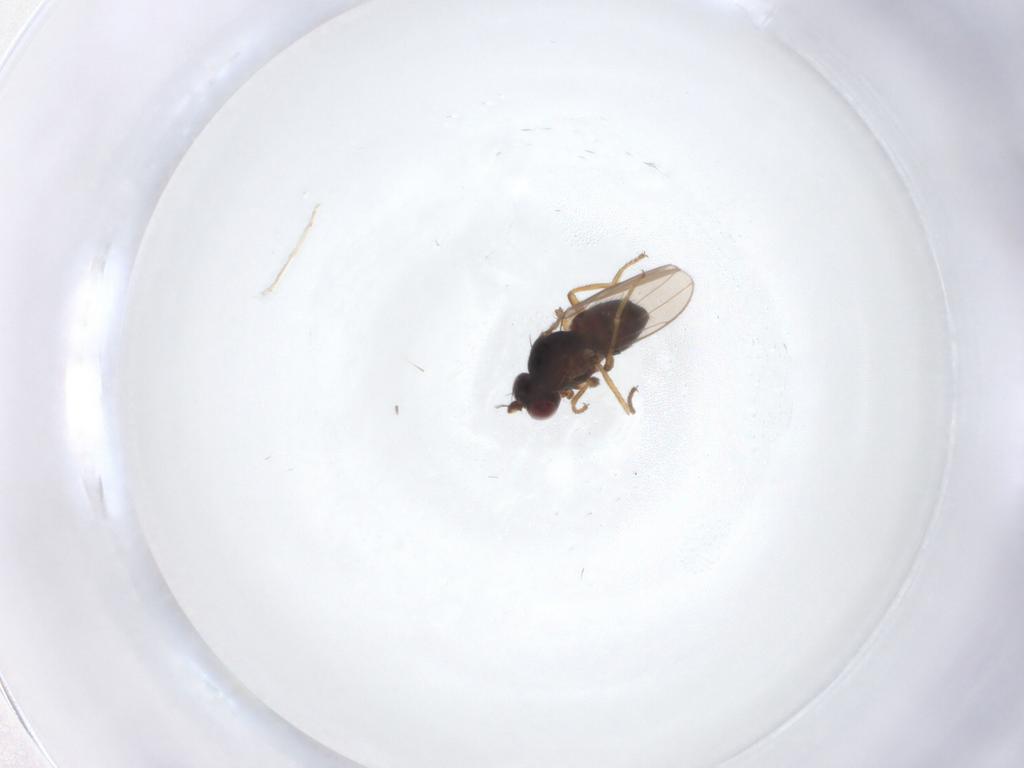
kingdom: Animalia
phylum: Arthropoda
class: Insecta
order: Diptera
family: Ephydridae
